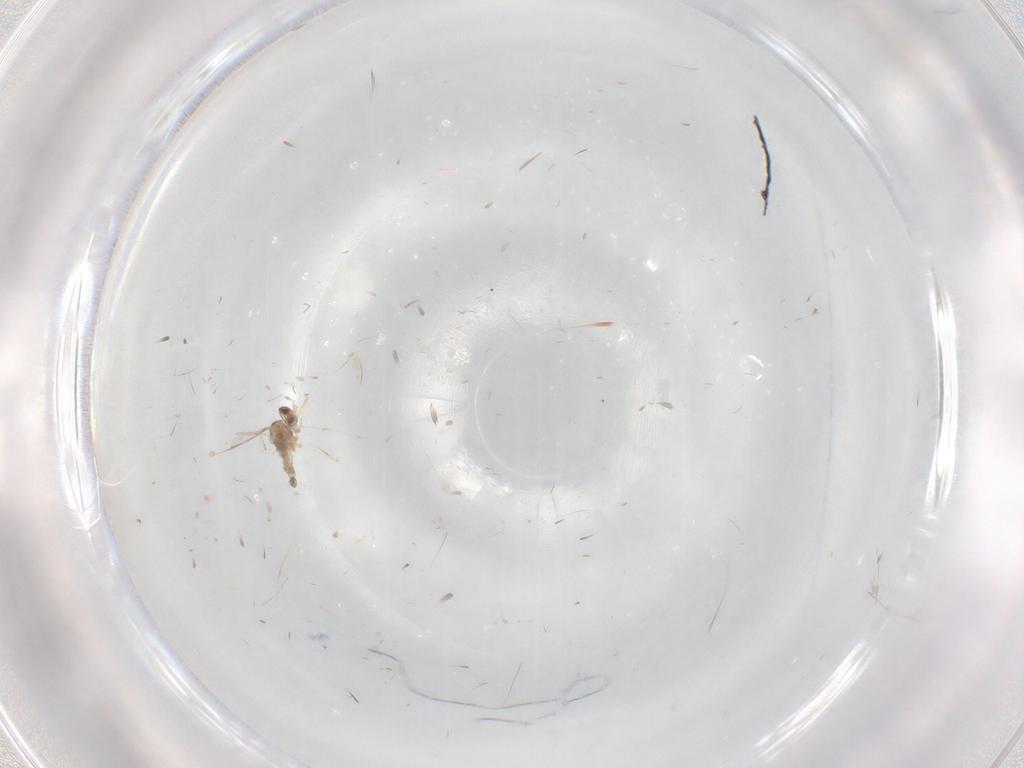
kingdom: Animalia
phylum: Arthropoda
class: Insecta
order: Diptera
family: Cecidomyiidae
